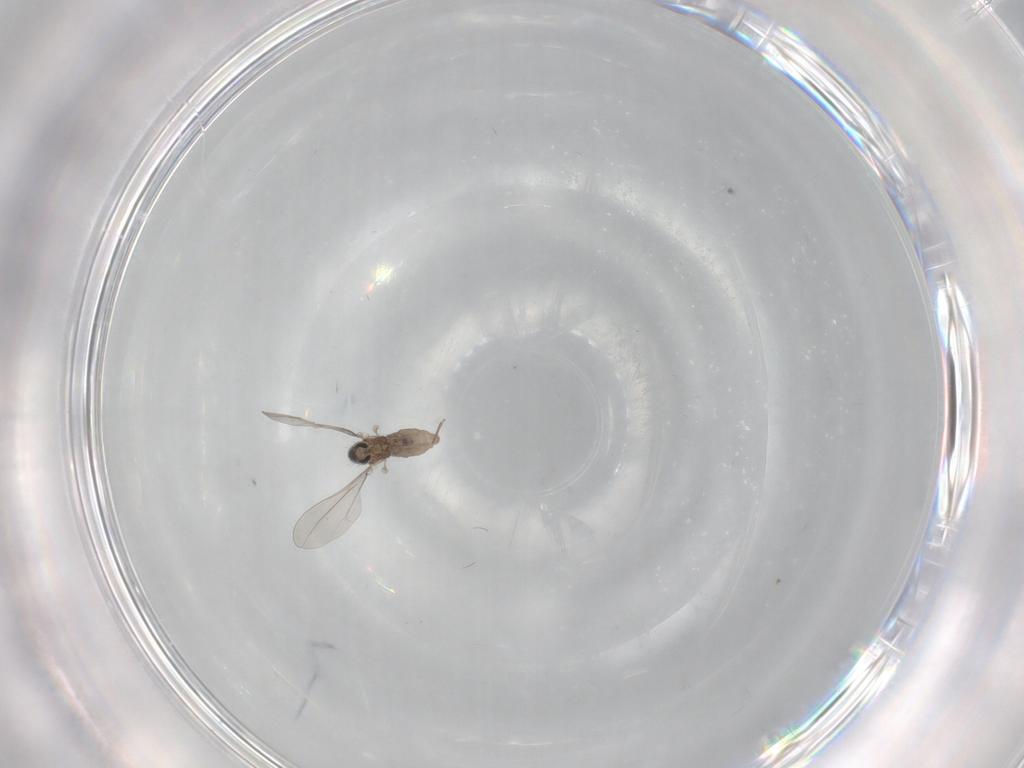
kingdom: Animalia
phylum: Arthropoda
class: Insecta
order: Diptera
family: Cecidomyiidae
